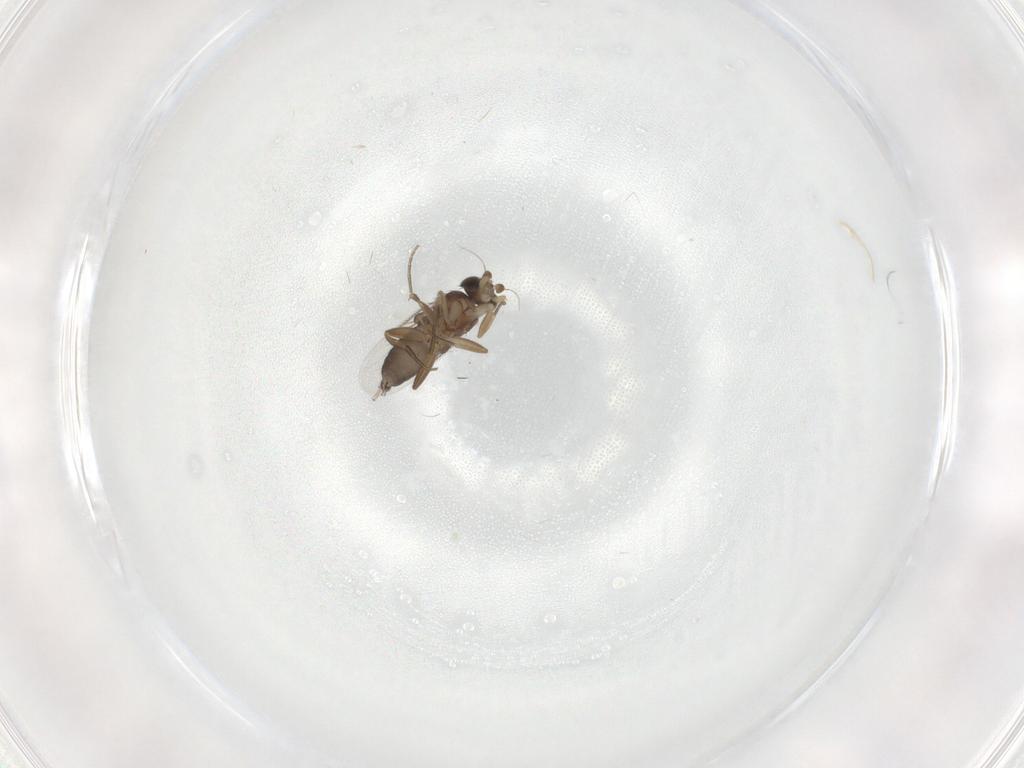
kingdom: Animalia
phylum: Arthropoda
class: Insecta
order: Diptera
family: Phoridae
